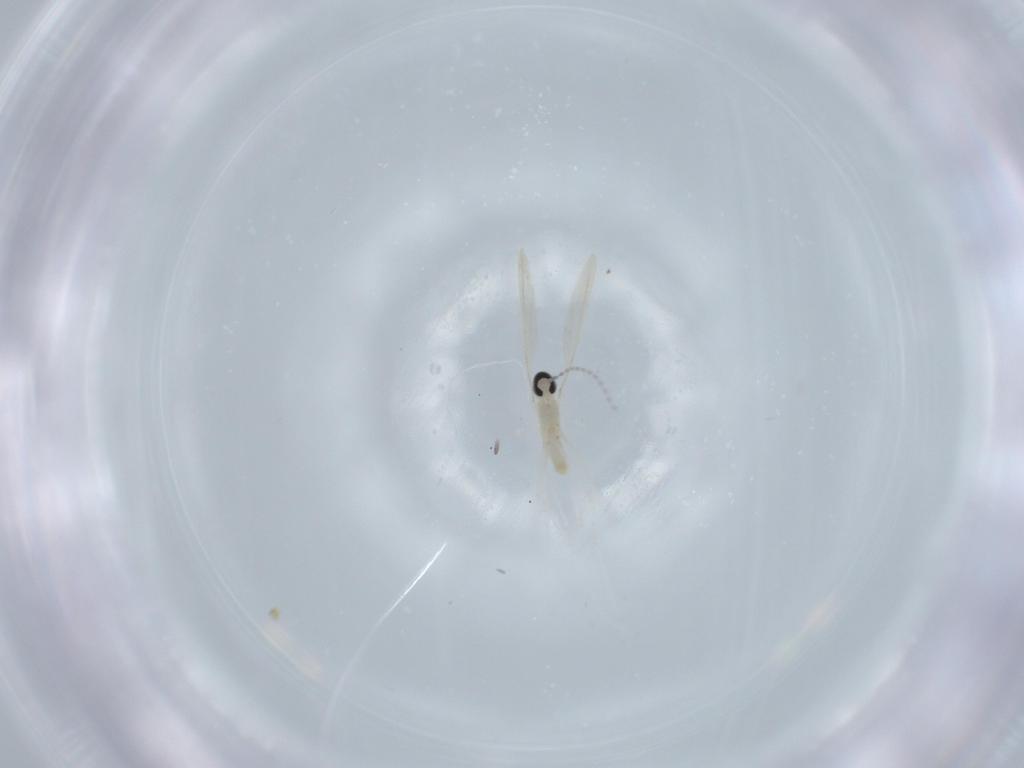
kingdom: Animalia
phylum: Arthropoda
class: Insecta
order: Diptera
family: Cecidomyiidae
